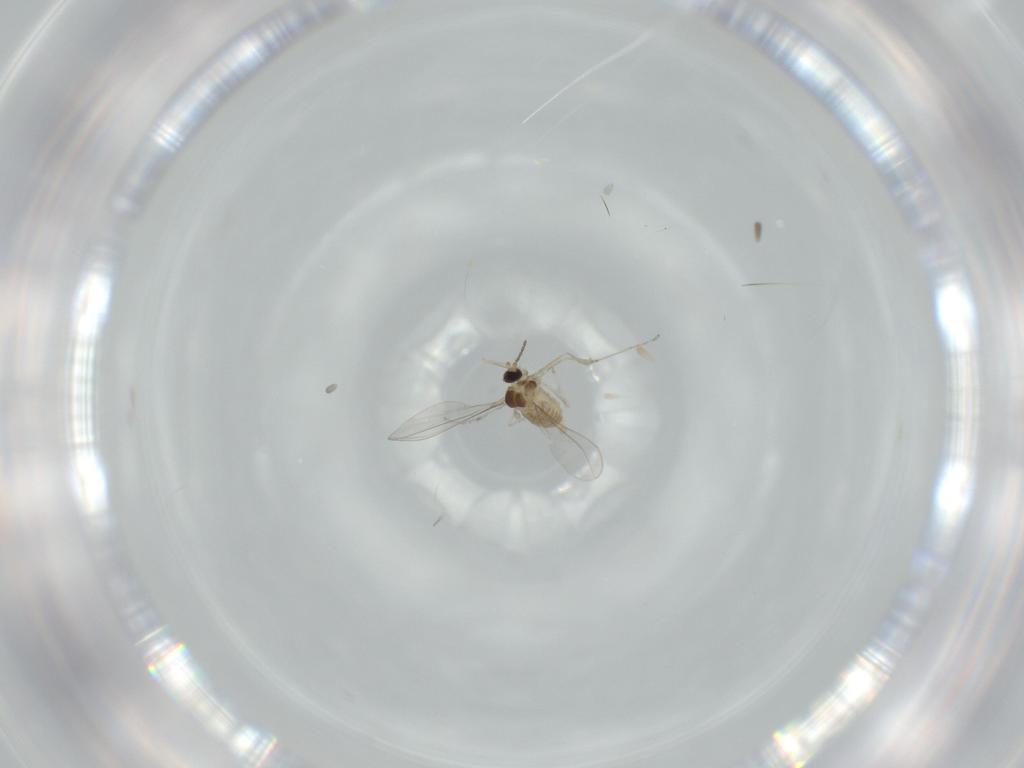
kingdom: Animalia
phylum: Arthropoda
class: Insecta
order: Diptera
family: Cecidomyiidae
